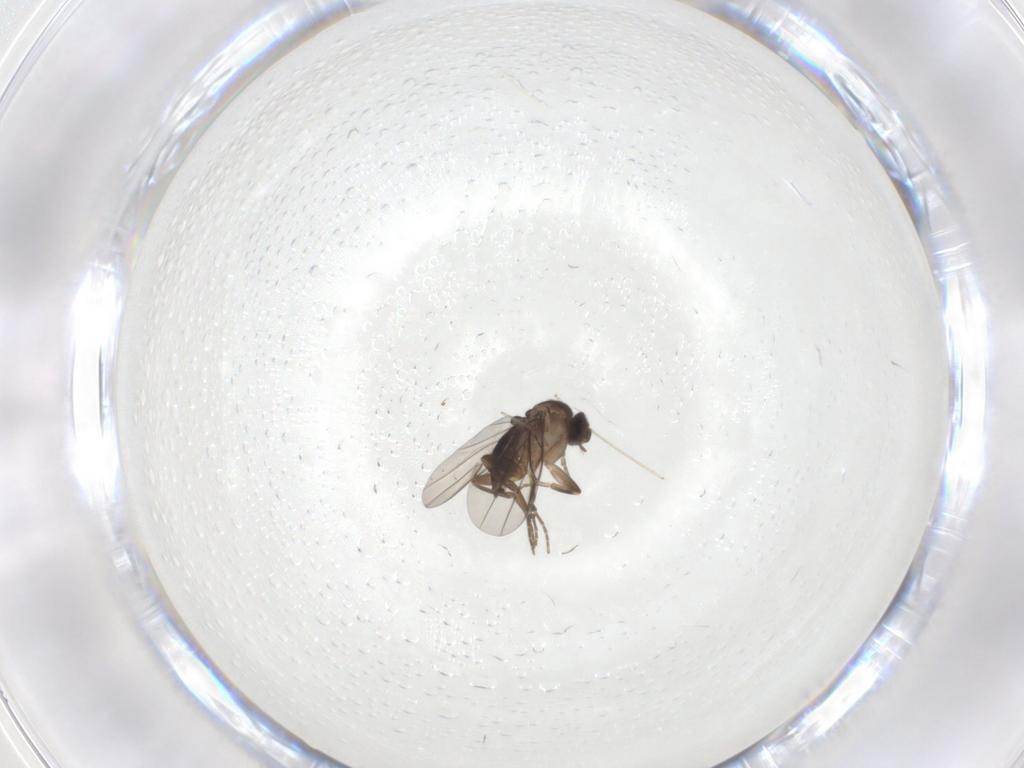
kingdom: Animalia
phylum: Arthropoda
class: Insecta
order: Diptera
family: Phoridae
